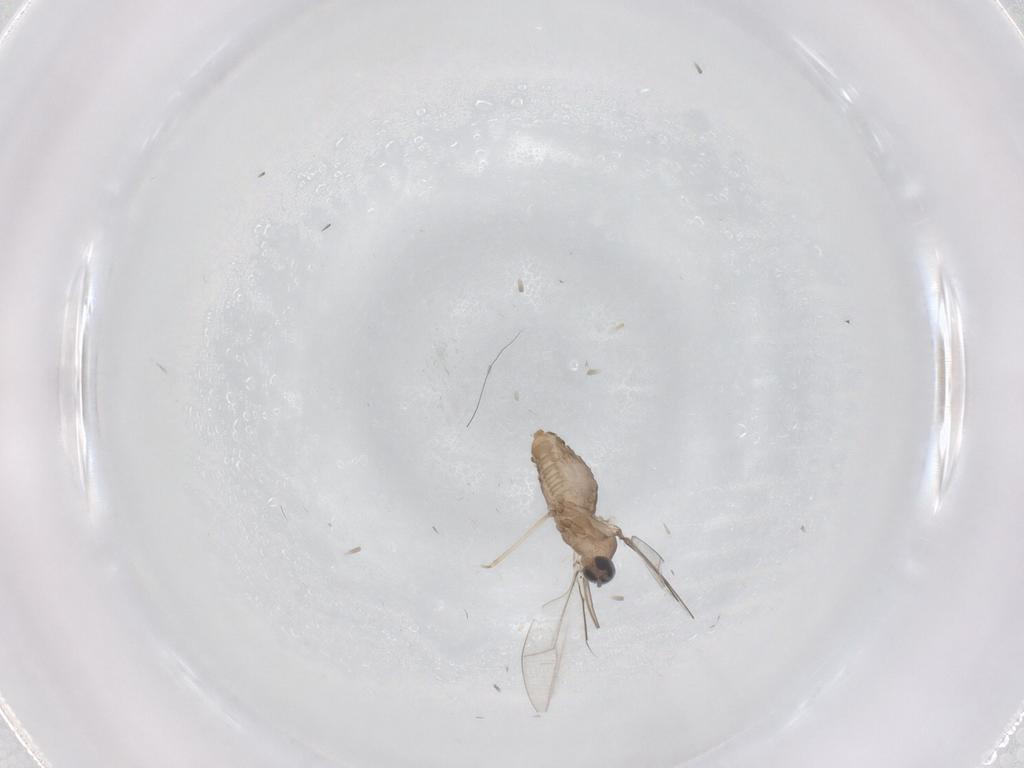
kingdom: Animalia
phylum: Arthropoda
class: Insecta
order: Diptera
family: Cecidomyiidae
